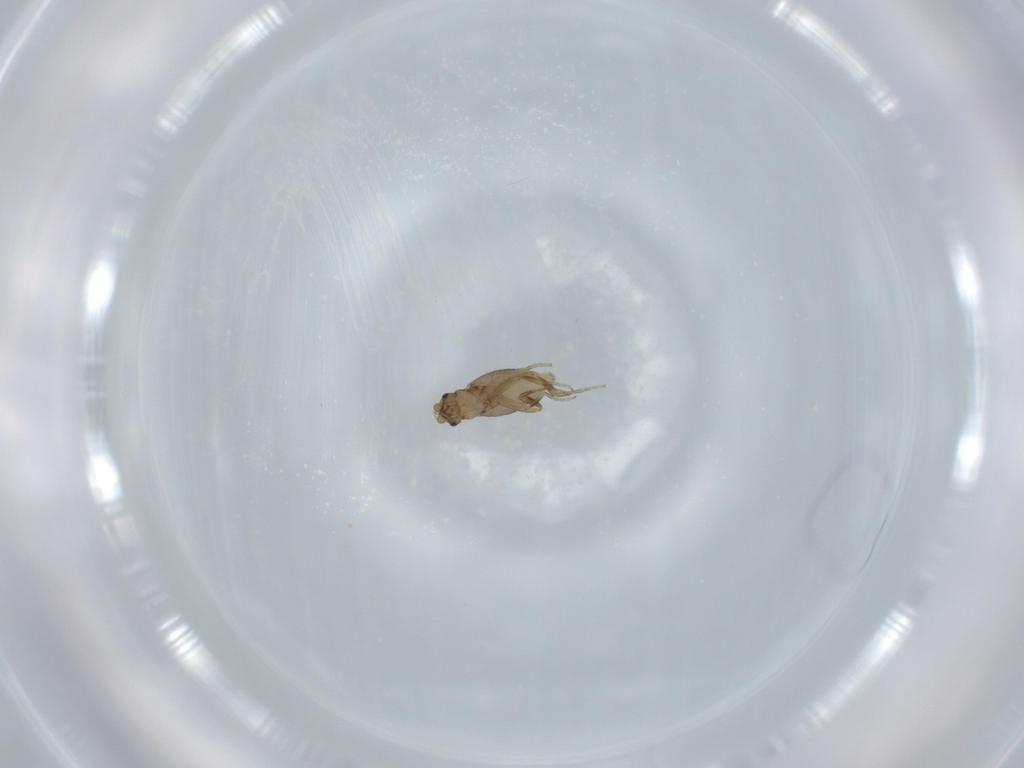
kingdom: Animalia
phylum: Arthropoda
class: Insecta
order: Diptera
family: Phoridae
